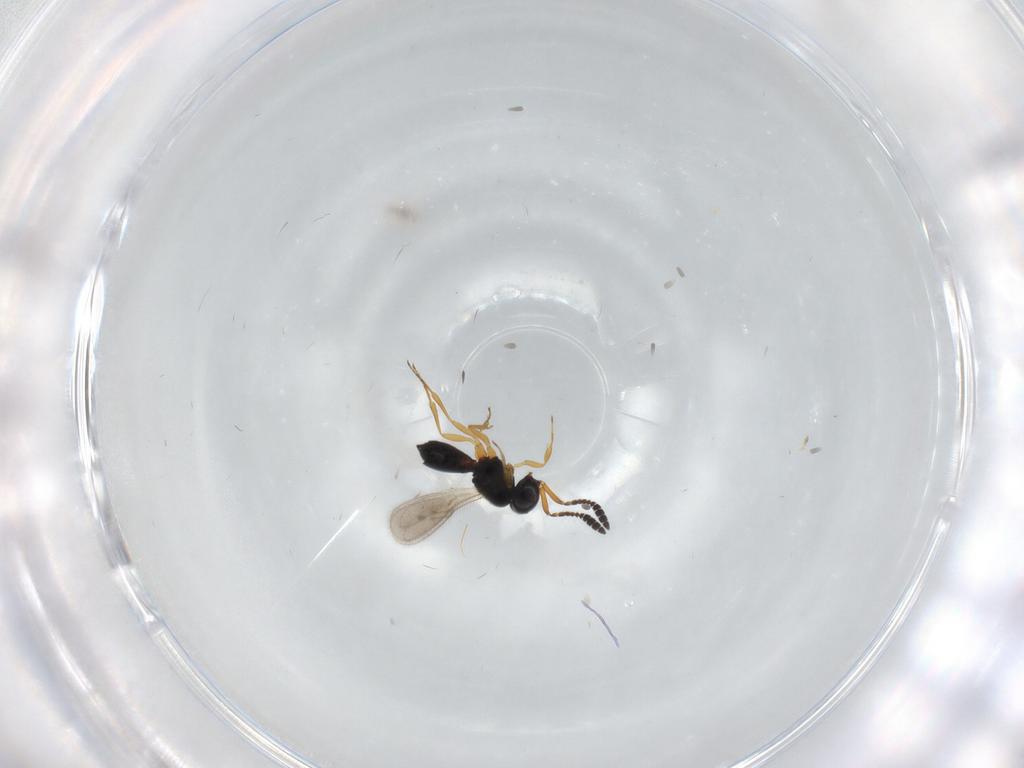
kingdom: Animalia
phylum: Arthropoda
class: Insecta
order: Hymenoptera
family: Scelionidae
